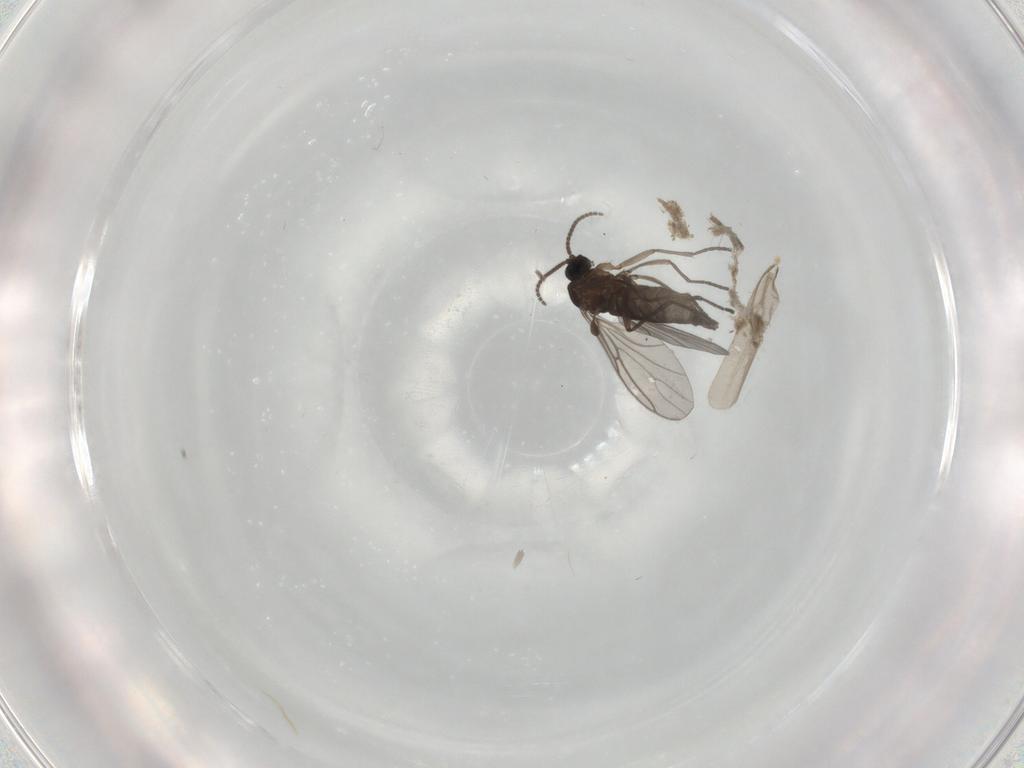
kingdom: Animalia
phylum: Arthropoda
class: Insecta
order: Diptera
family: Sciaridae
